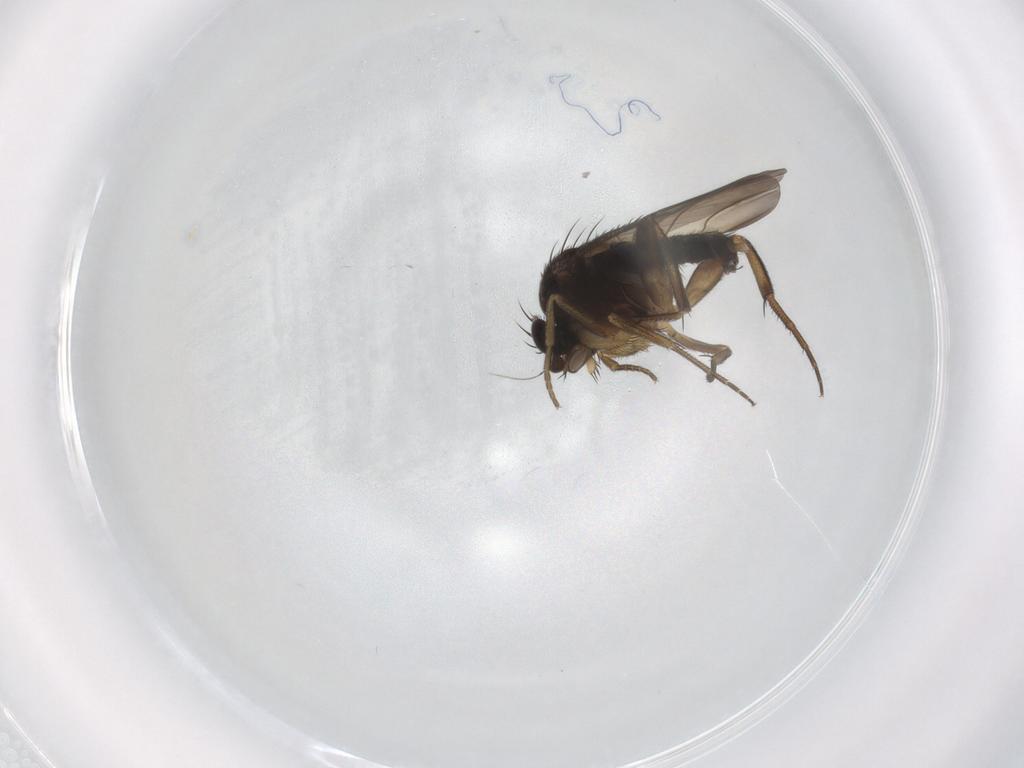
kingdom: Animalia
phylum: Arthropoda
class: Insecta
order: Diptera
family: Phoridae
